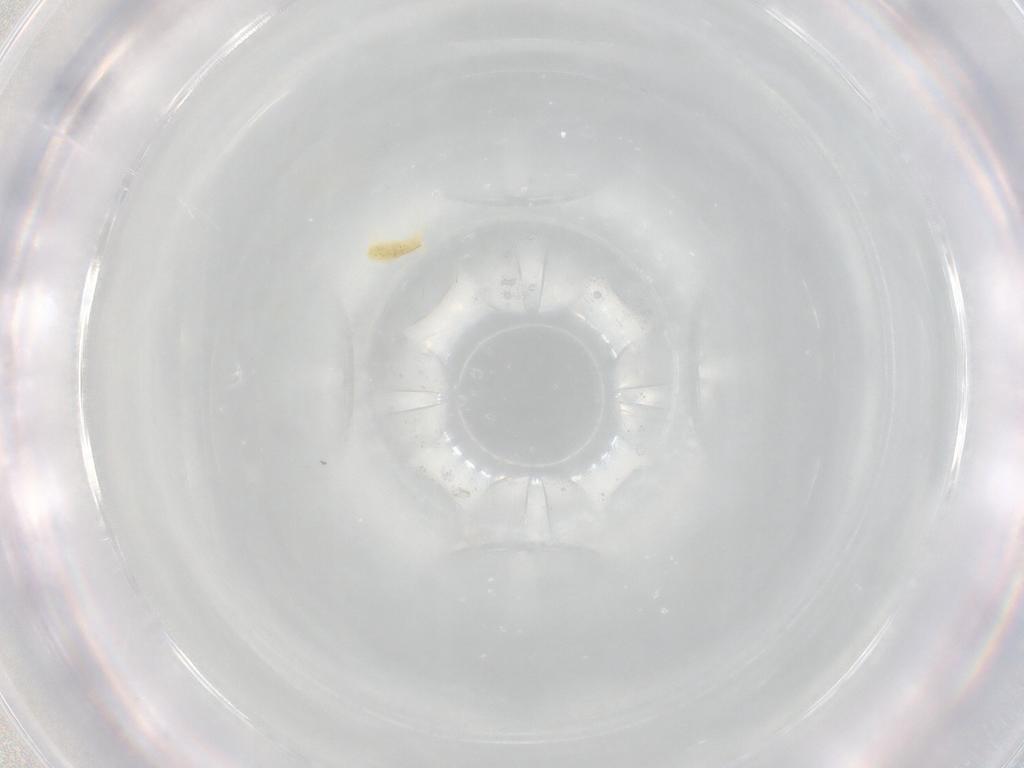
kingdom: Animalia
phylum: Arthropoda
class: Arachnida
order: Trombidiformes
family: Tetranychidae
